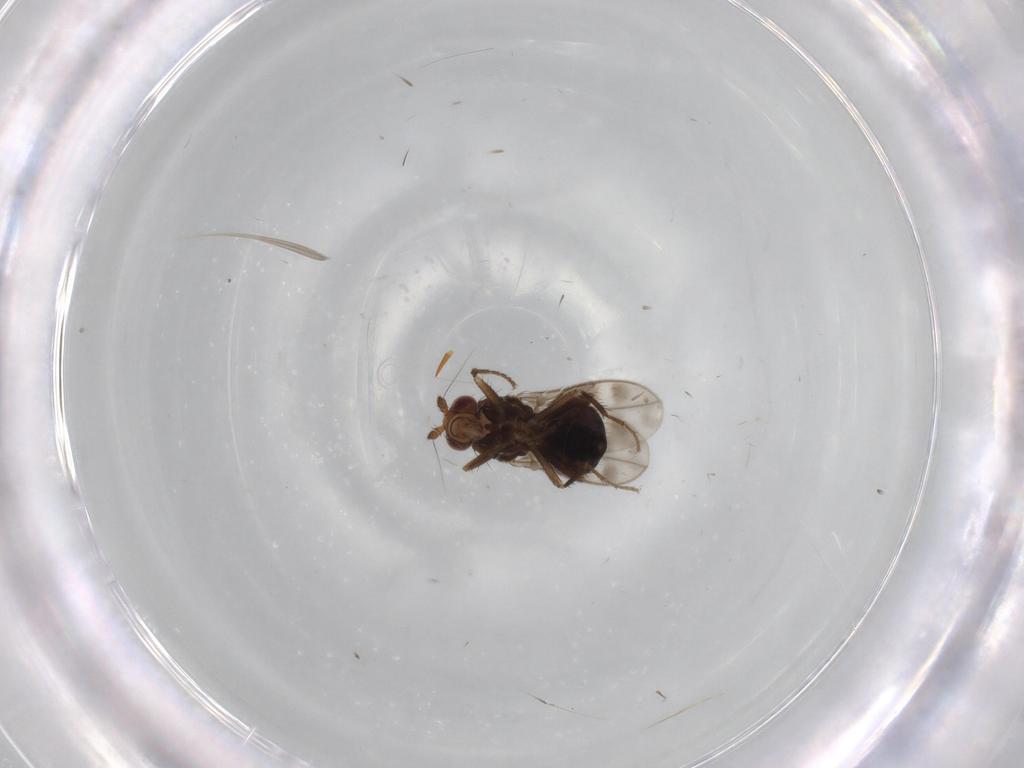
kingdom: Animalia
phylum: Arthropoda
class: Insecta
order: Diptera
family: Sphaeroceridae
